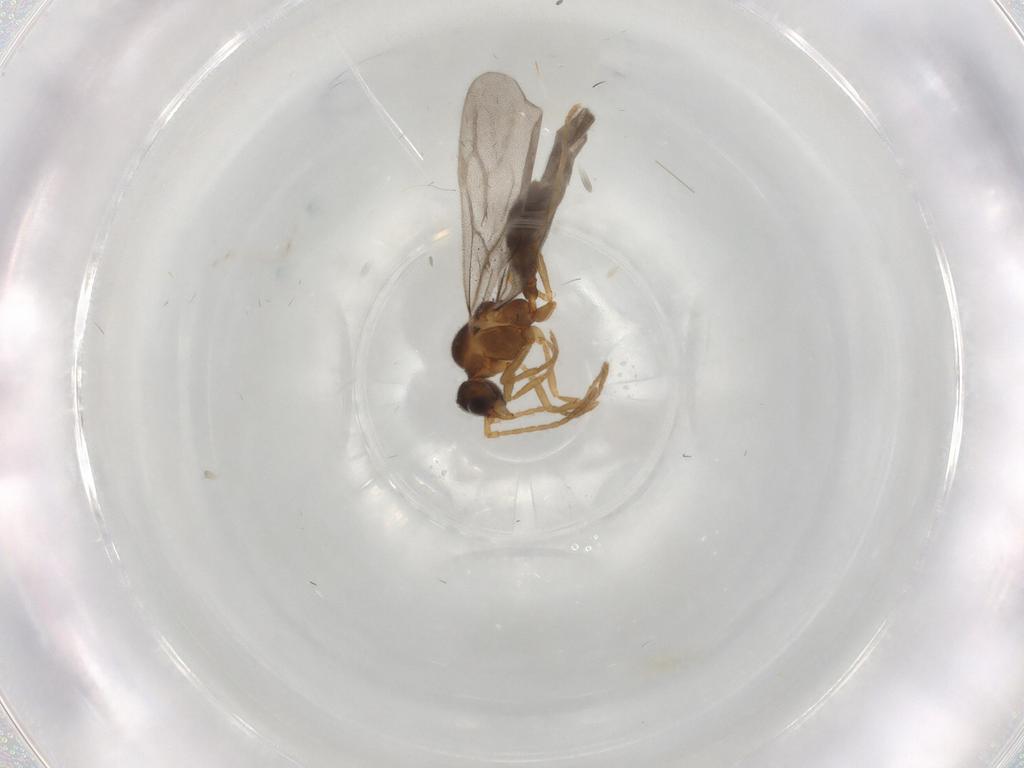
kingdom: Animalia
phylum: Arthropoda
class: Insecta
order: Hymenoptera
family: Formicidae
